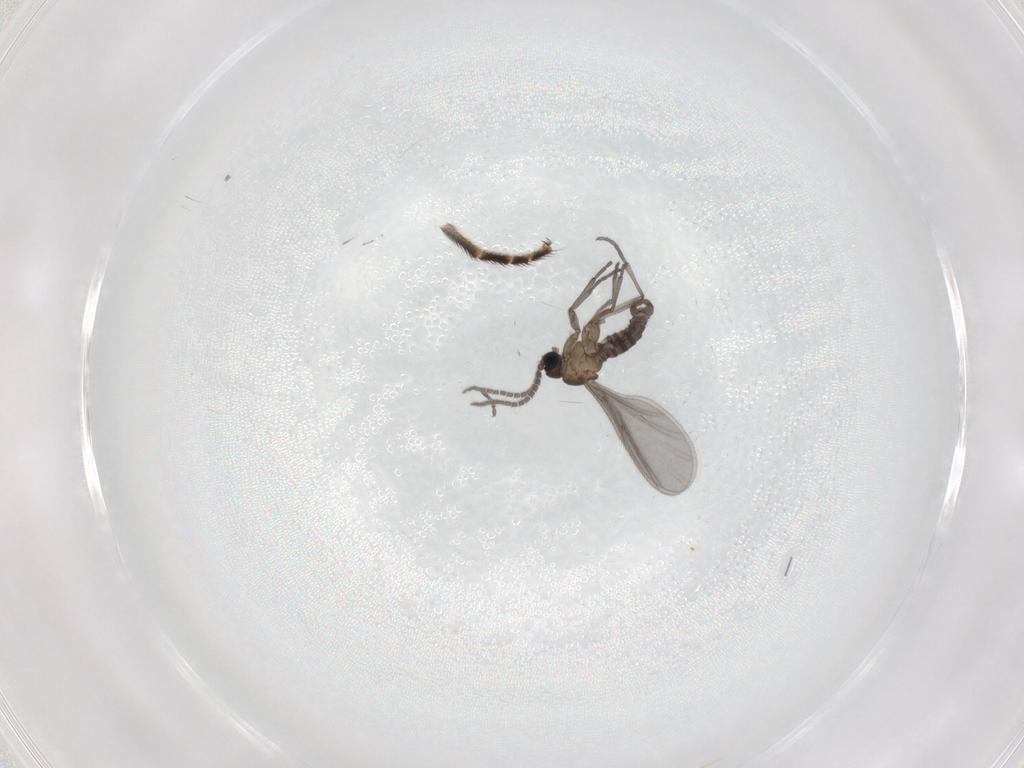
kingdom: Animalia
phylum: Arthropoda
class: Insecta
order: Diptera
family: Sciaridae
